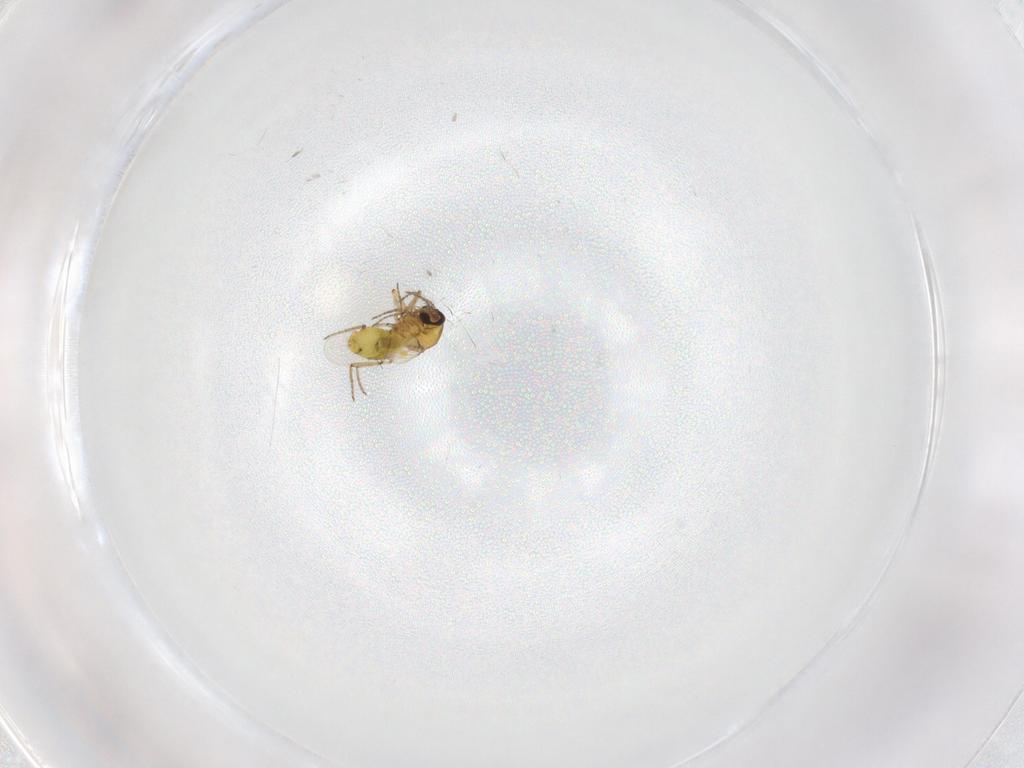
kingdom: Animalia
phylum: Arthropoda
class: Insecta
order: Diptera
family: Ceratopogonidae
